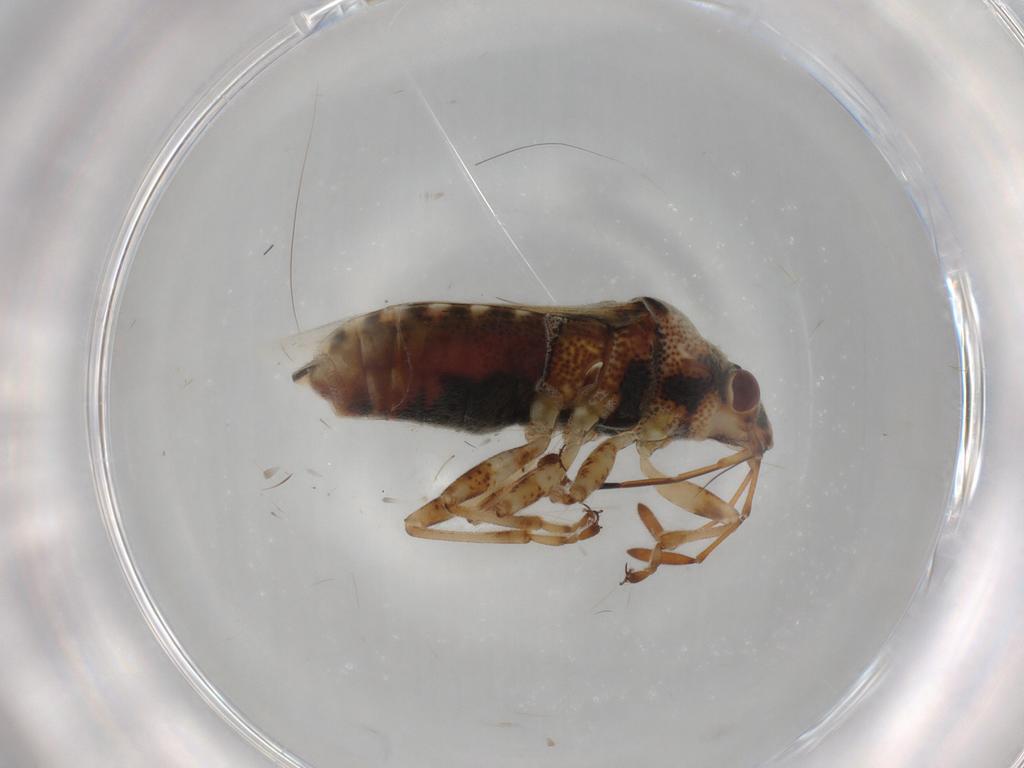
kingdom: Animalia
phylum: Arthropoda
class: Insecta
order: Hemiptera
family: Lygaeidae
